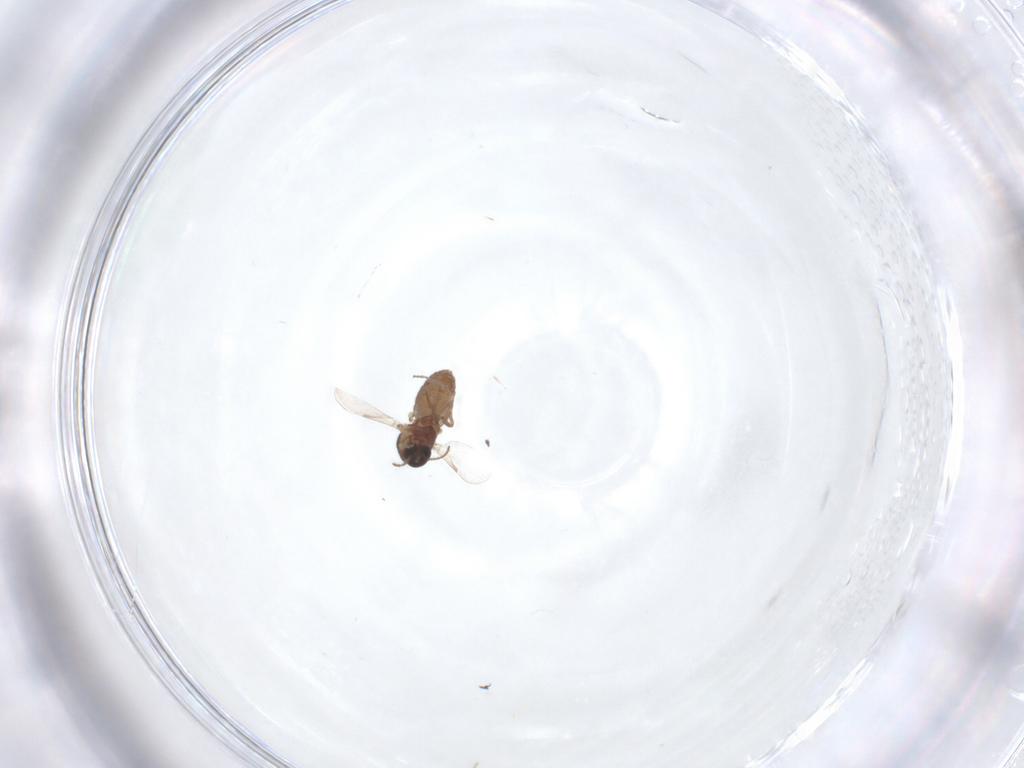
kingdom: Animalia
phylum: Arthropoda
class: Insecta
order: Diptera
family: Ceratopogonidae
